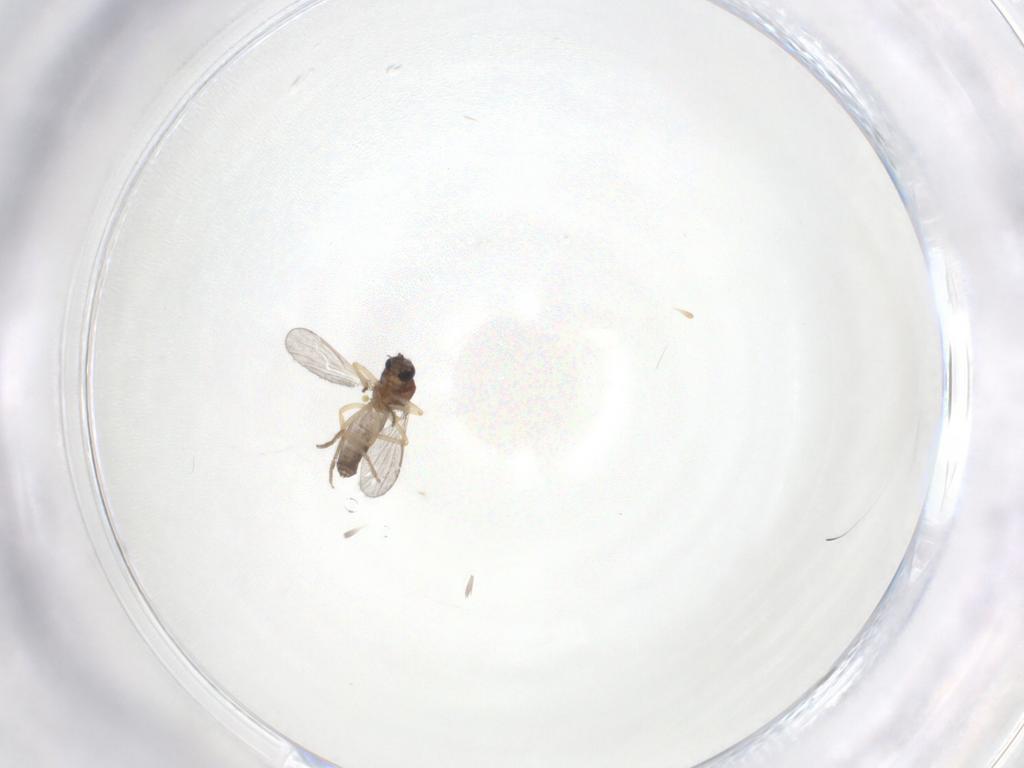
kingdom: Animalia
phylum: Arthropoda
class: Insecta
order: Diptera
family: Ceratopogonidae
